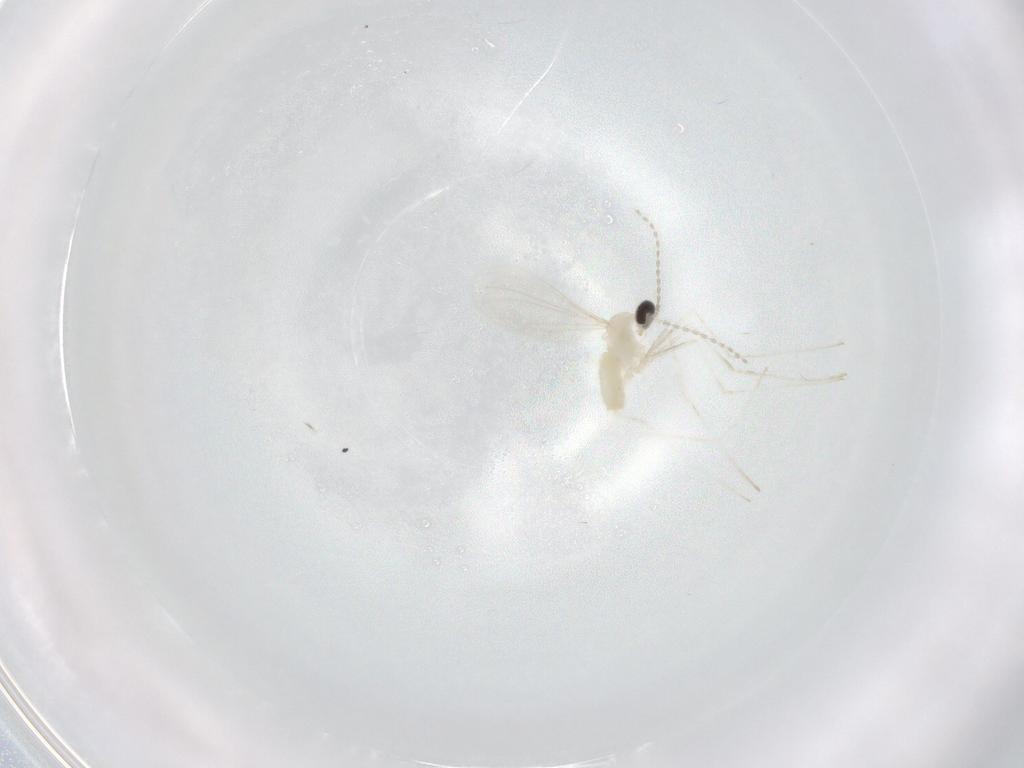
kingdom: Animalia
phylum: Arthropoda
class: Insecta
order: Diptera
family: Cecidomyiidae
